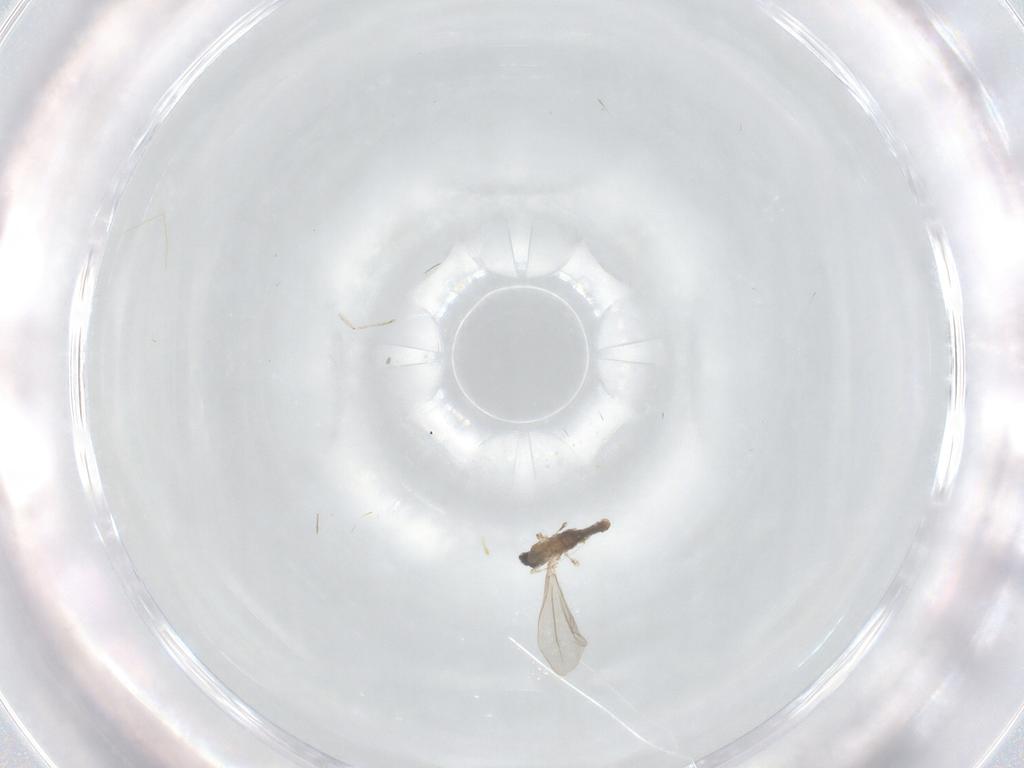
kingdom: Animalia
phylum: Arthropoda
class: Insecta
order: Diptera
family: Cecidomyiidae
